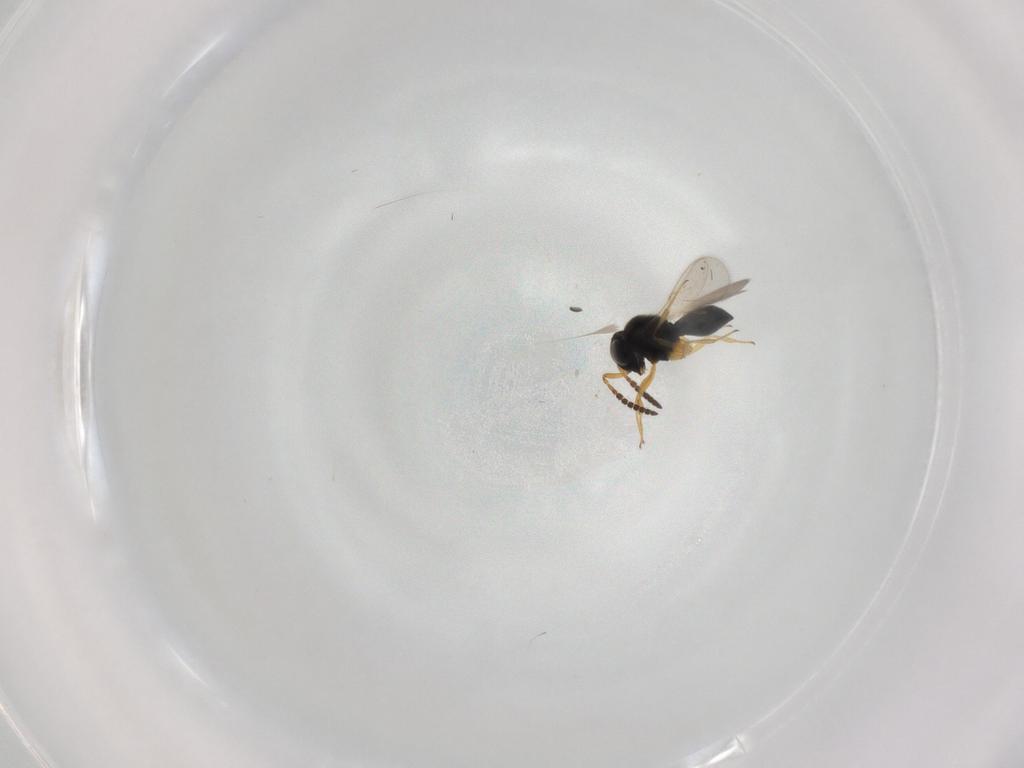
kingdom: Animalia
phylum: Arthropoda
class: Insecta
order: Hymenoptera
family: Scelionidae
